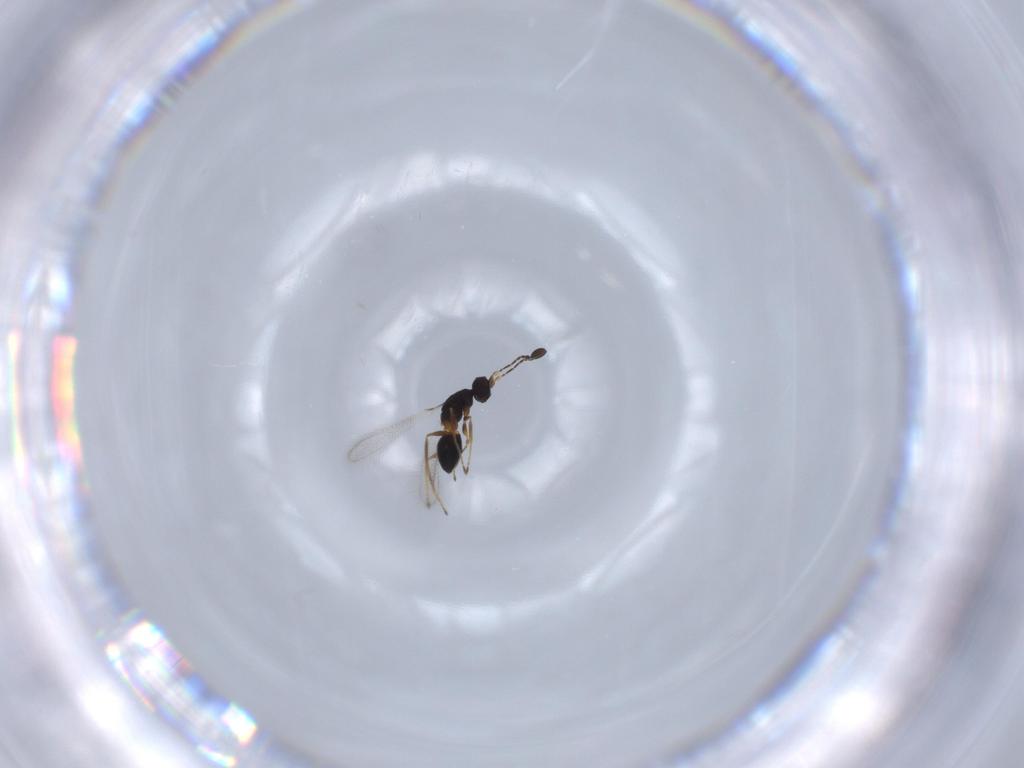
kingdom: Animalia
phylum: Arthropoda
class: Insecta
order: Hymenoptera
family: Mymaridae
